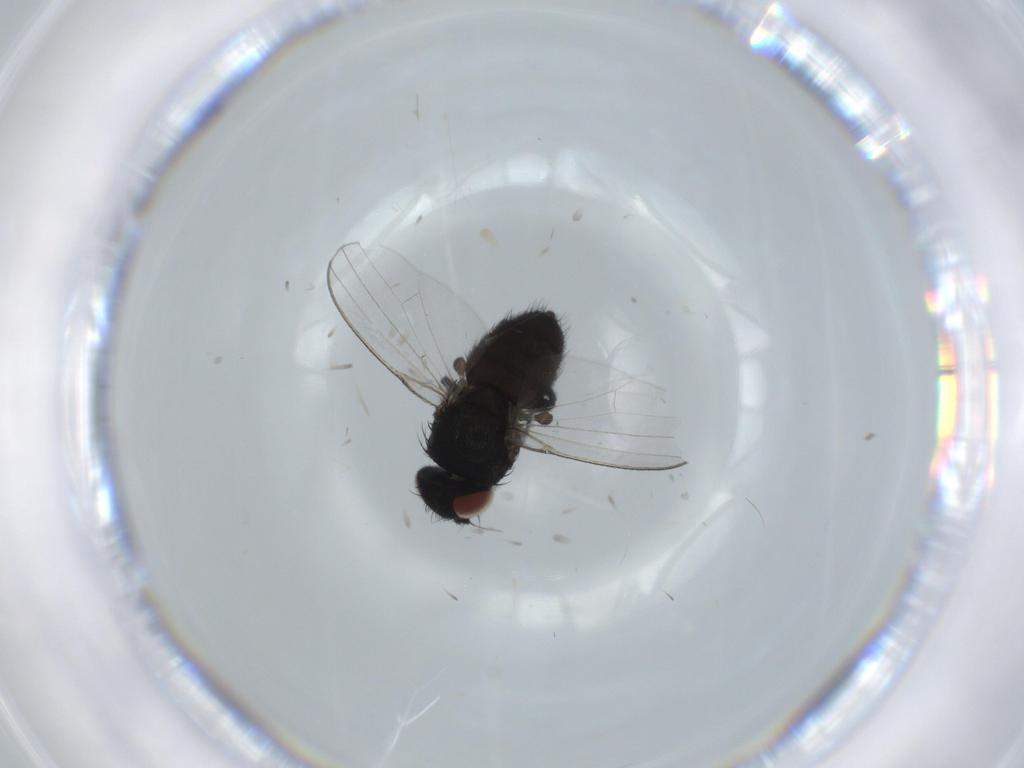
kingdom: Animalia
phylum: Arthropoda
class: Insecta
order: Diptera
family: Milichiidae
